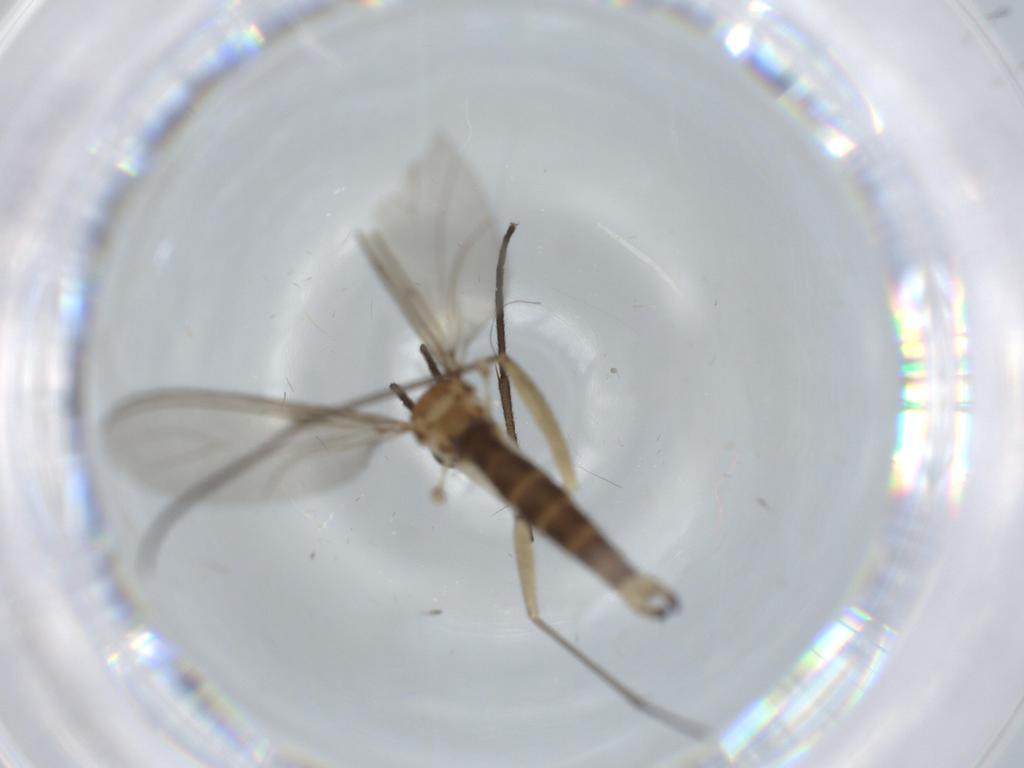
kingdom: Animalia
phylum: Arthropoda
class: Insecta
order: Diptera
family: Sciaridae
